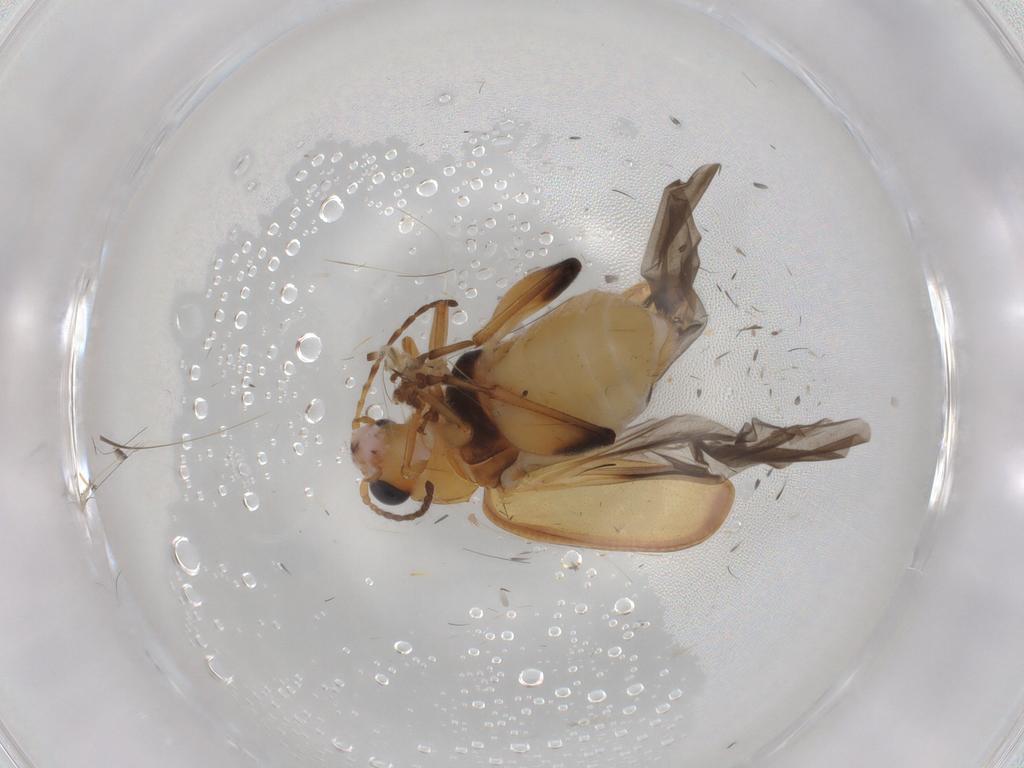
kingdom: Animalia
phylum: Arthropoda
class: Insecta
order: Coleoptera
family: Chrysomelidae
